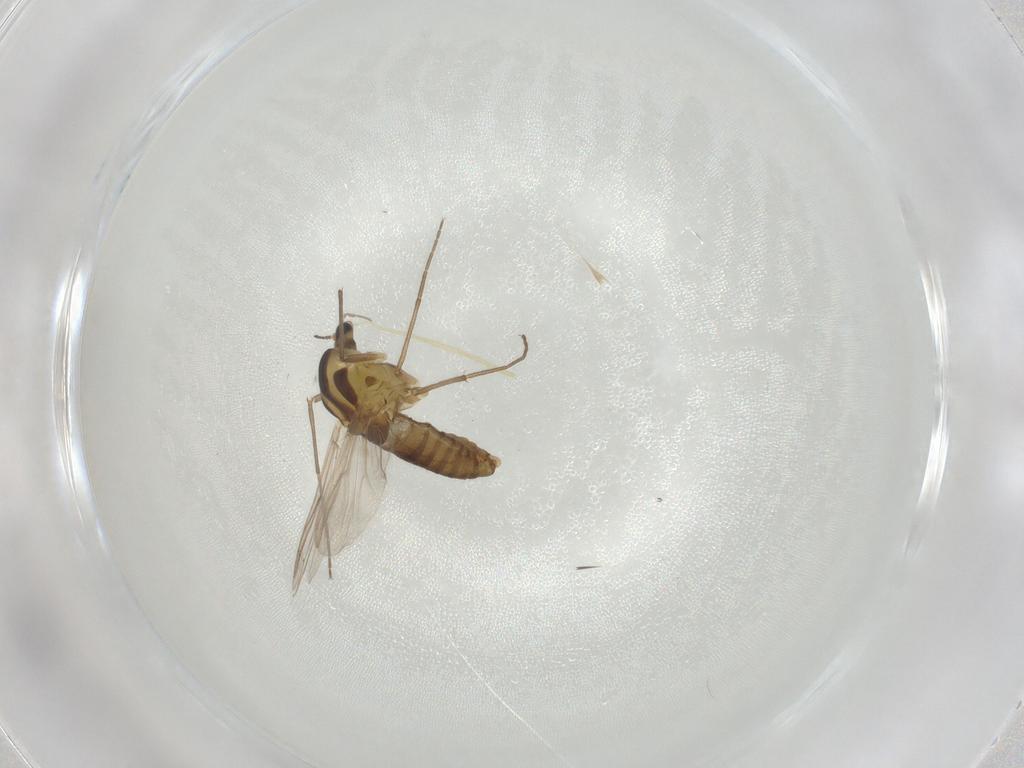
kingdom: Animalia
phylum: Arthropoda
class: Insecta
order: Diptera
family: Chironomidae
